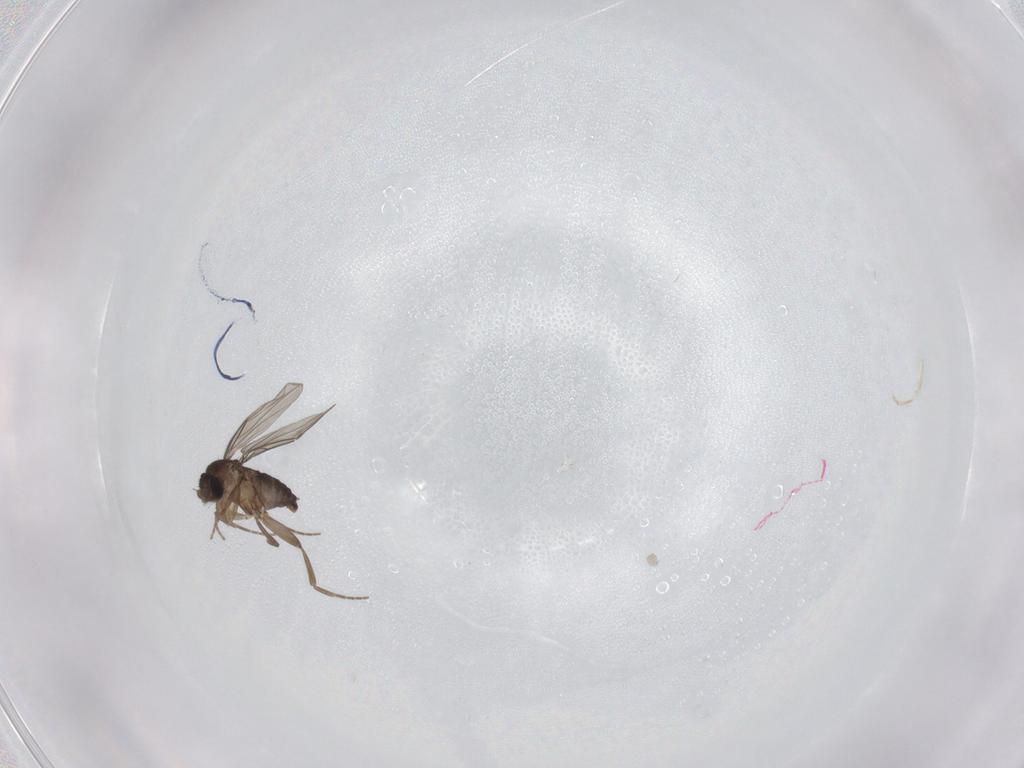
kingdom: Animalia
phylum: Arthropoda
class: Insecta
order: Diptera
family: Phoridae
